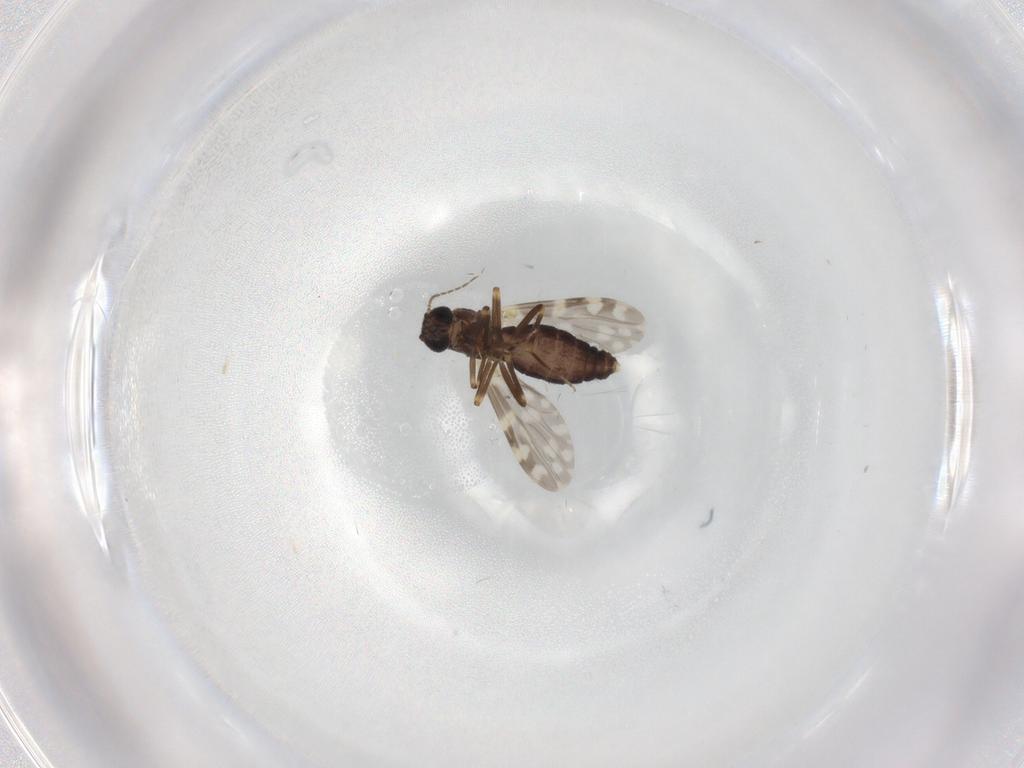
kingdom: Animalia
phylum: Arthropoda
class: Insecta
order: Diptera
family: Ceratopogonidae
